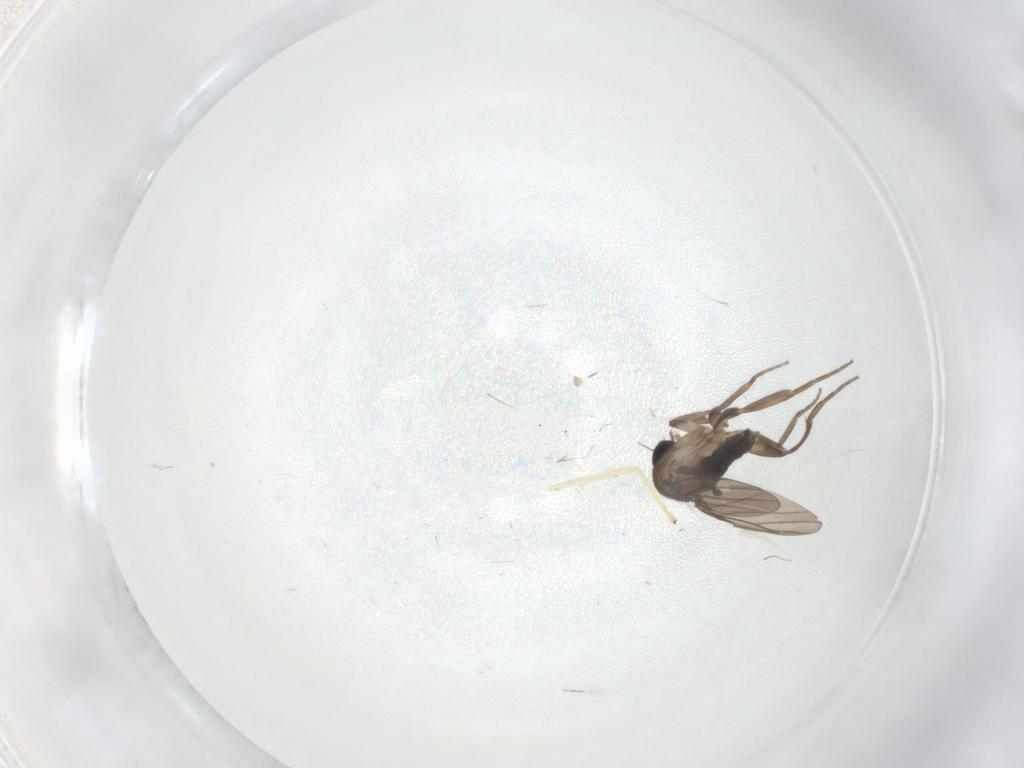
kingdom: Animalia
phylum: Arthropoda
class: Insecta
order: Diptera
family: Chironomidae
